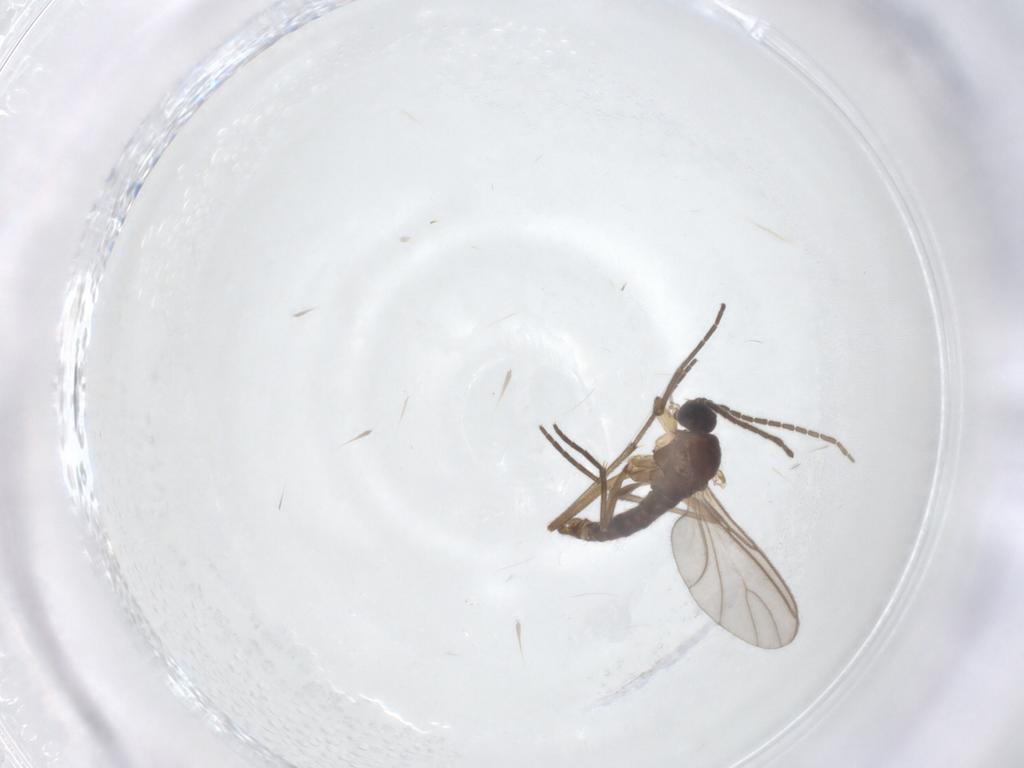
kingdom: Animalia
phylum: Arthropoda
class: Insecta
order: Diptera
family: Sciaridae
